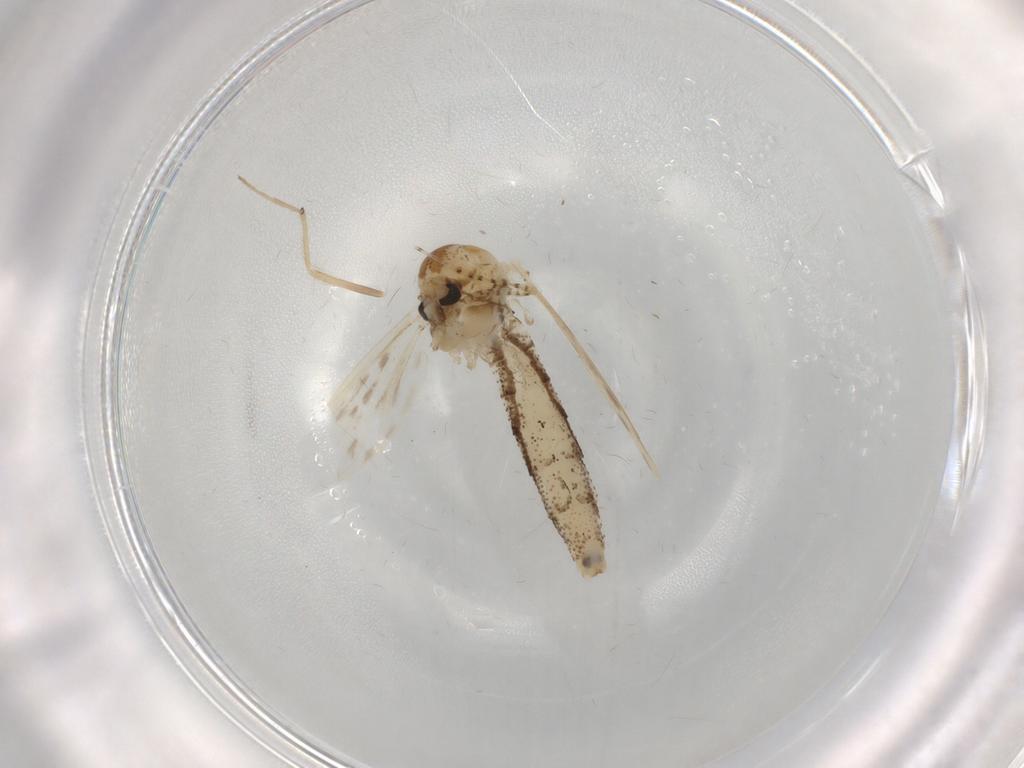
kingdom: Animalia
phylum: Arthropoda
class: Insecta
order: Diptera
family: Chaoboridae
